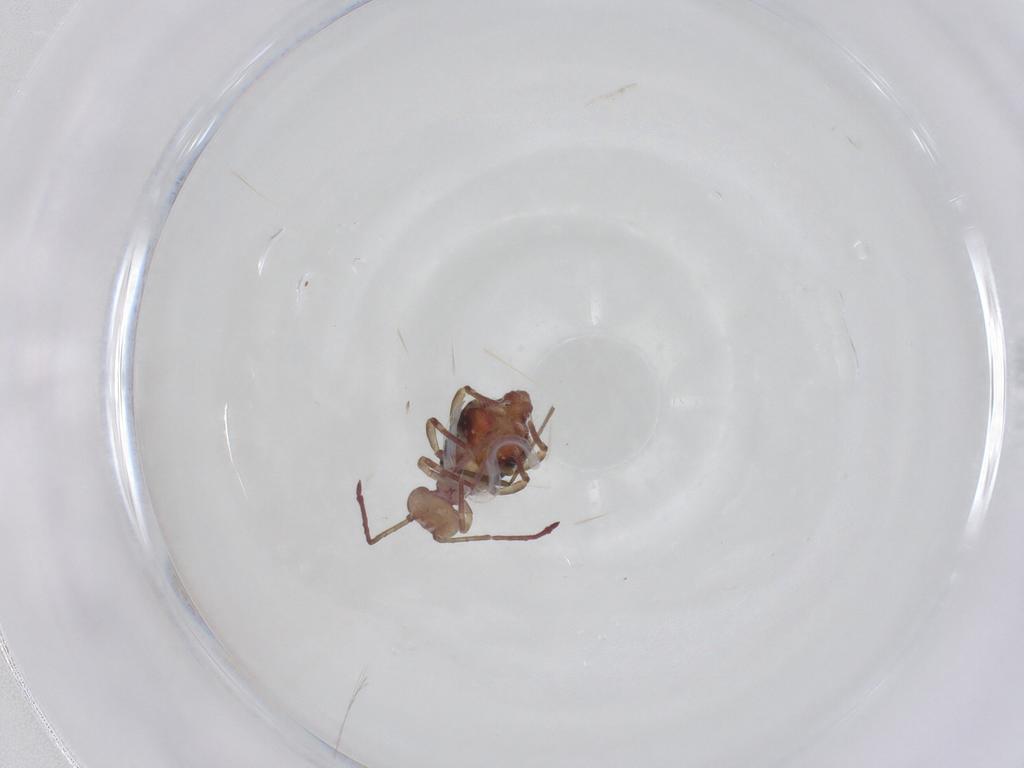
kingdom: Animalia
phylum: Arthropoda
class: Collembola
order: Symphypleona
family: Dicyrtomidae
